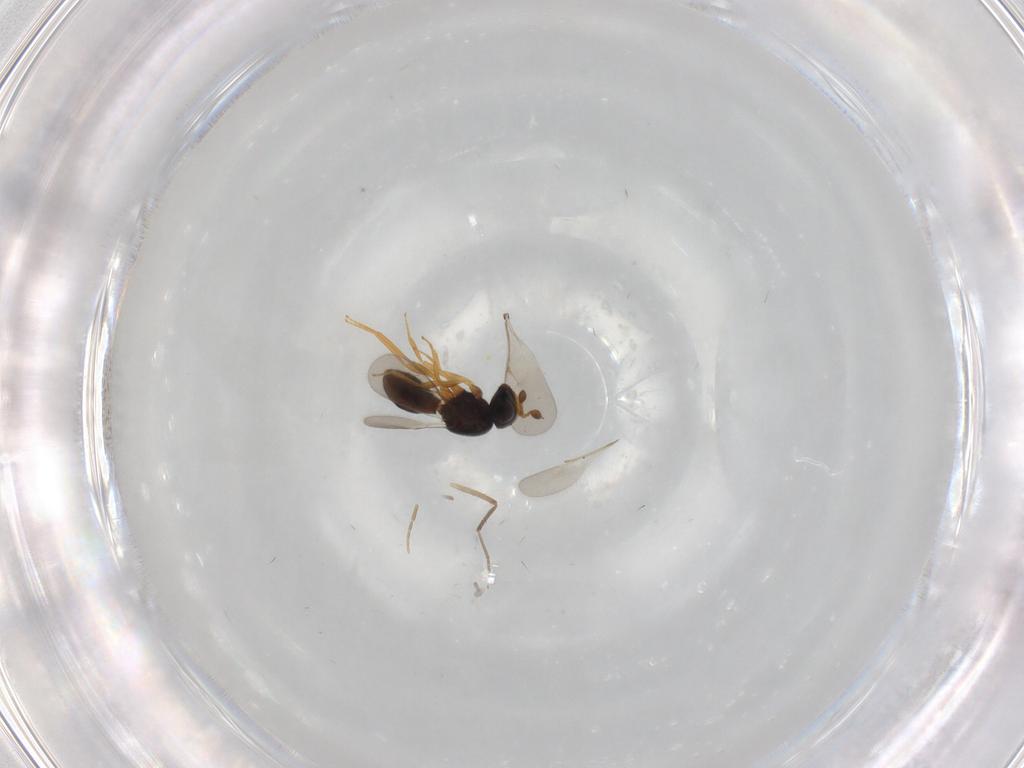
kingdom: Animalia
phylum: Arthropoda
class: Insecta
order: Hymenoptera
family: Scelionidae
